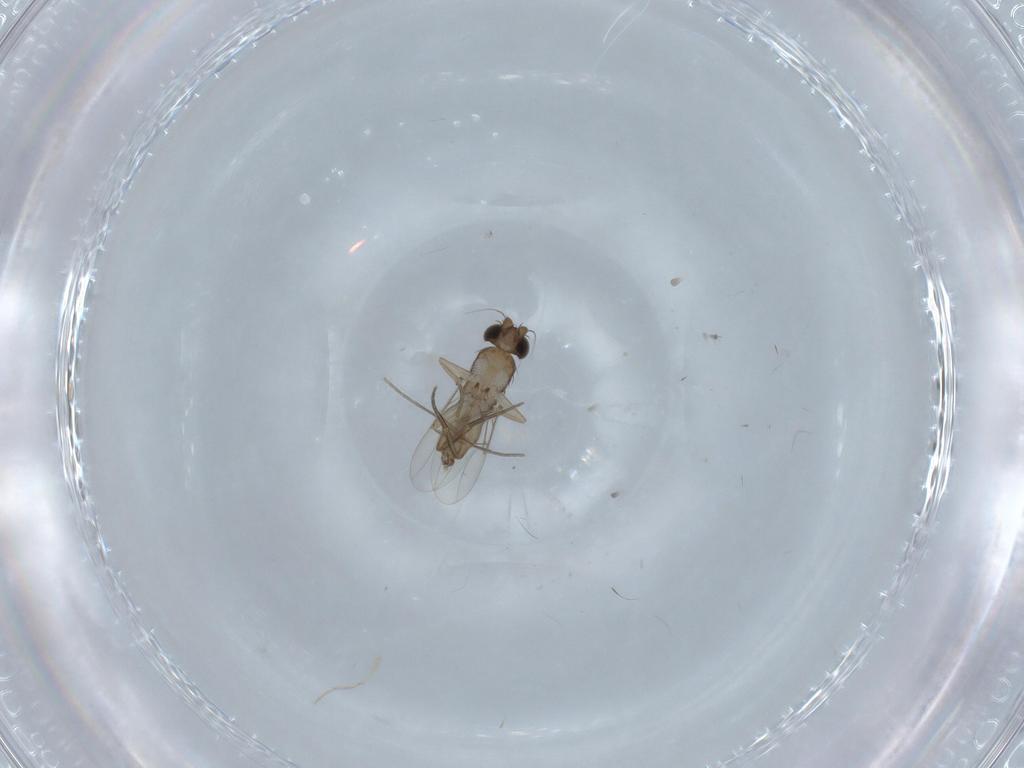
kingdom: Animalia
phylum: Arthropoda
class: Insecta
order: Diptera
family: Phoridae
